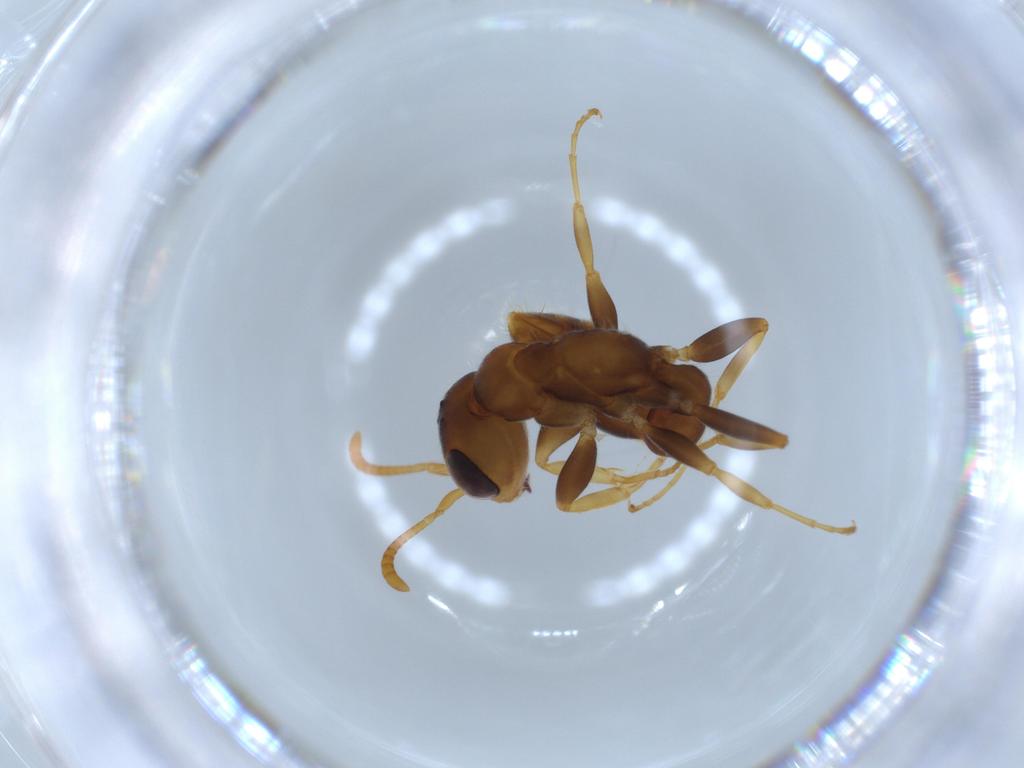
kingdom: Animalia
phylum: Arthropoda
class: Insecta
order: Hymenoptera
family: Formicidae
